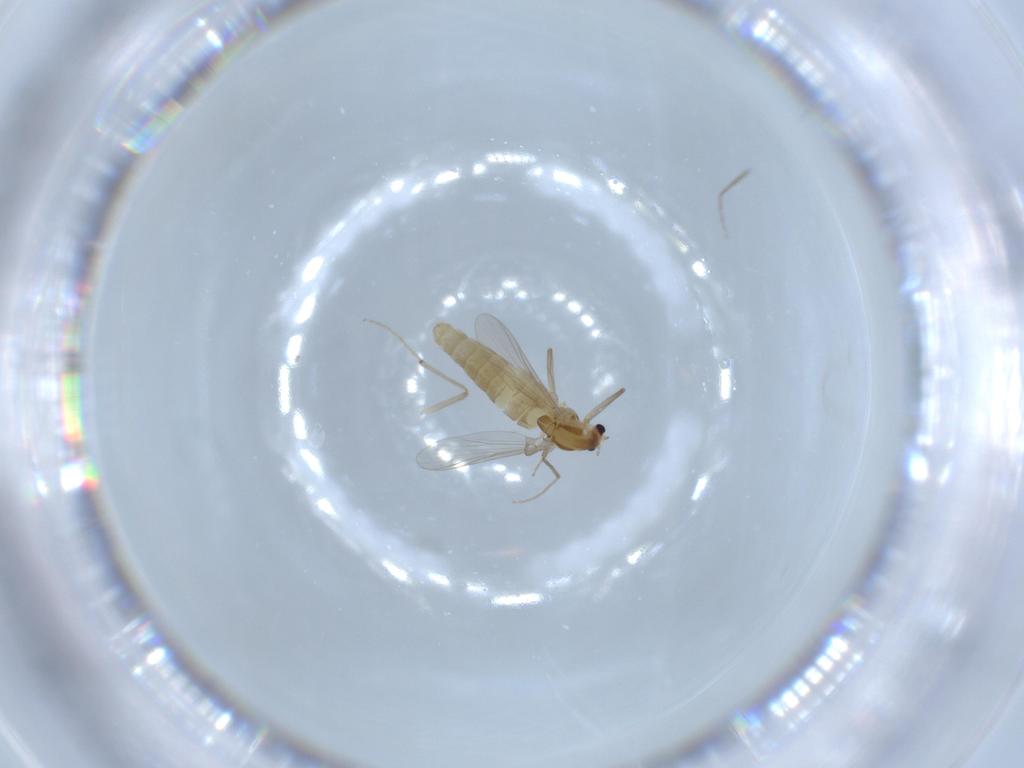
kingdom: Animalia
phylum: Arthropoda
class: Insecta
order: Diptera
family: Chironomidae
